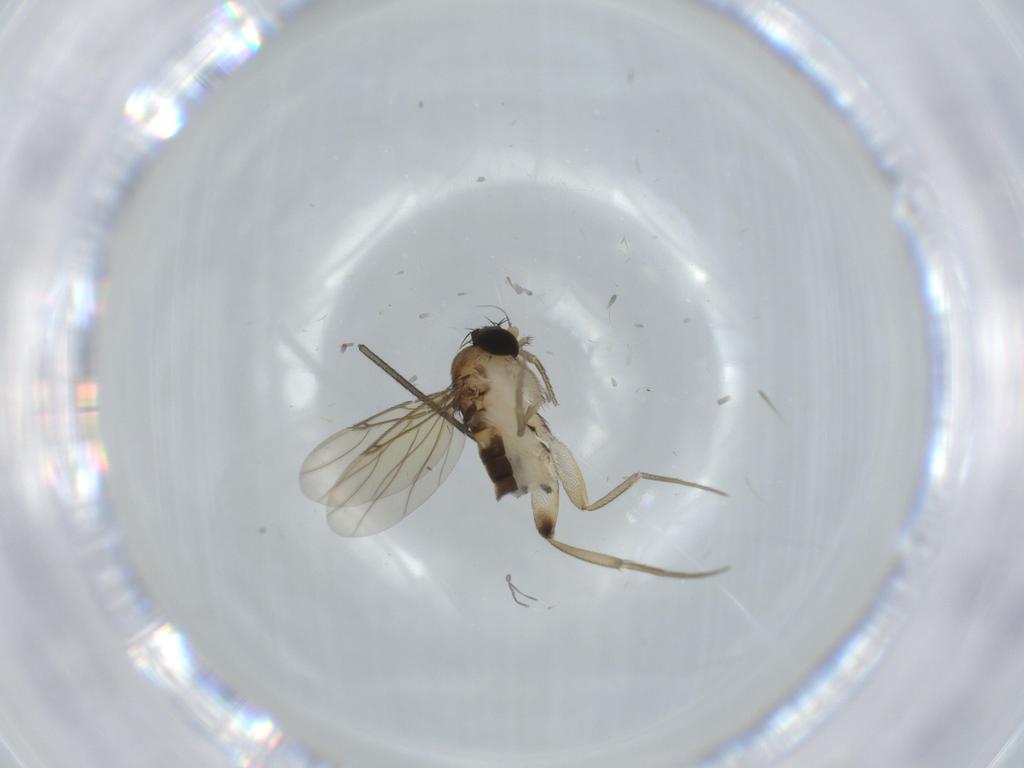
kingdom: Animalia
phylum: Arthropoda
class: Insecta
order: Diptera
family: Phoridae
